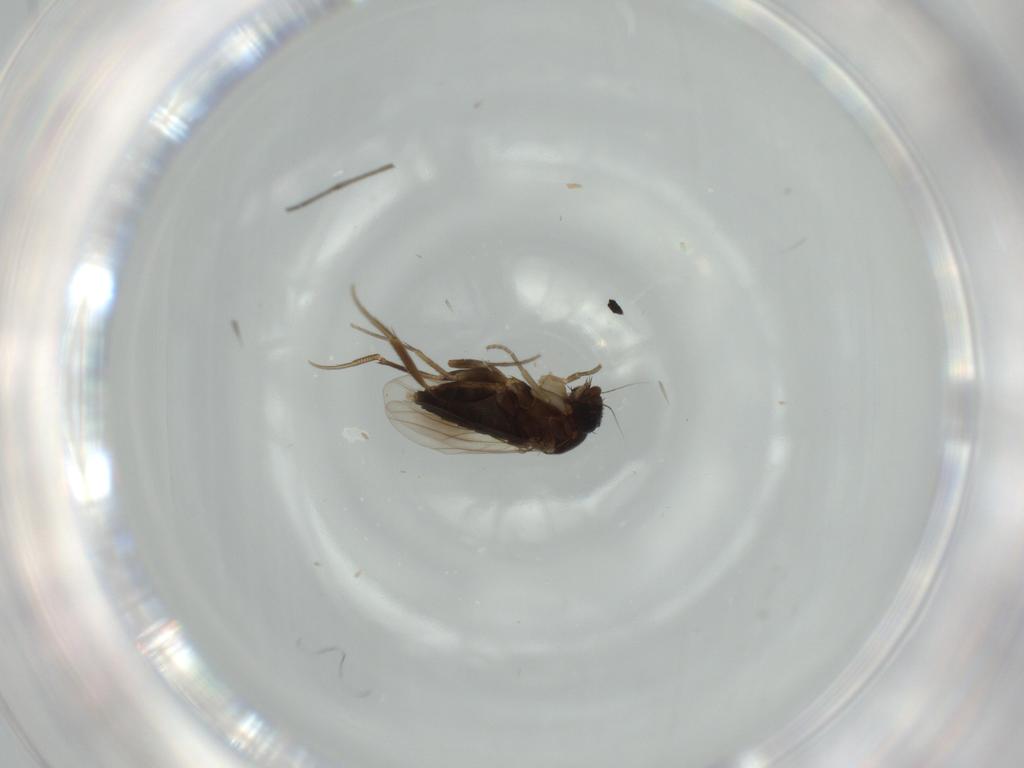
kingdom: Animalia
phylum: Arthropoda
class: Insecta
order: Diptera
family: Phoridae
